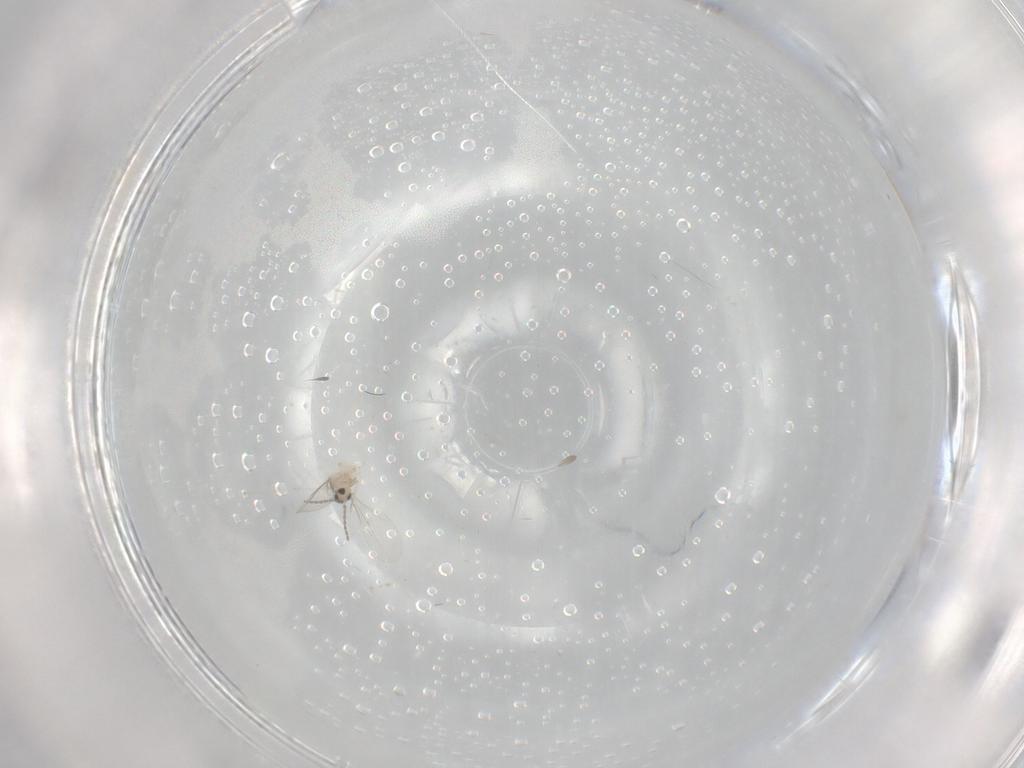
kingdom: Animalia
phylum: Arthropoda
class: Insecta
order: Diptera
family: Cecidomyiidae
